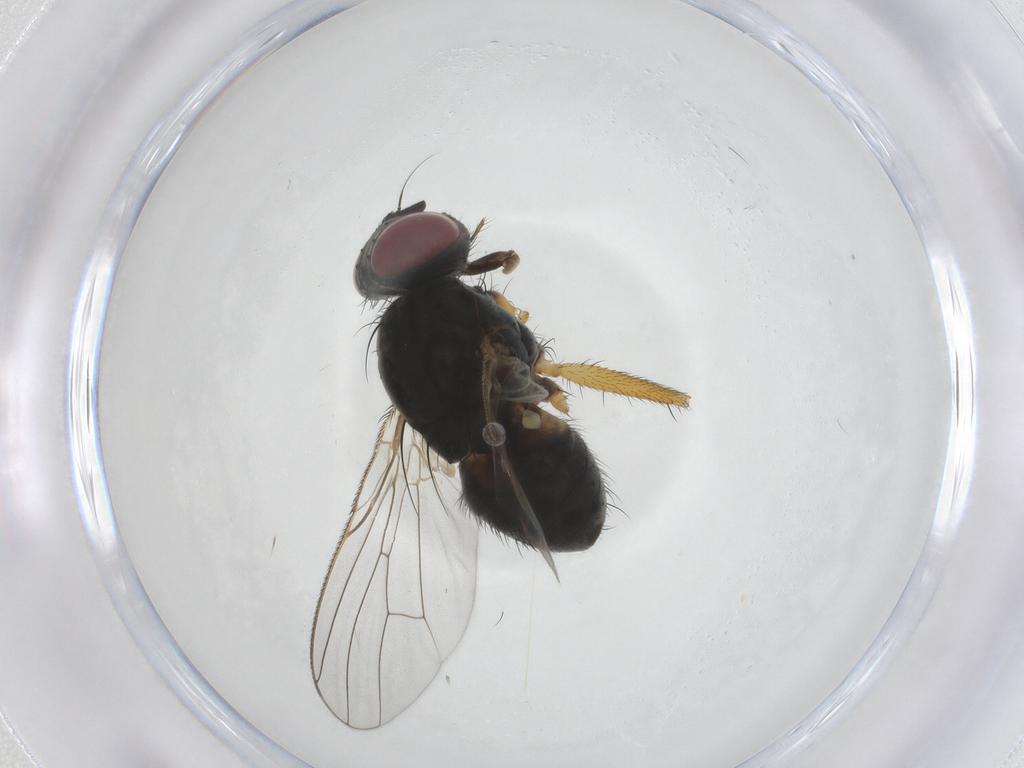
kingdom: Animalia
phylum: Arthropoda
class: Insecta
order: Diptera
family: Muscidae
